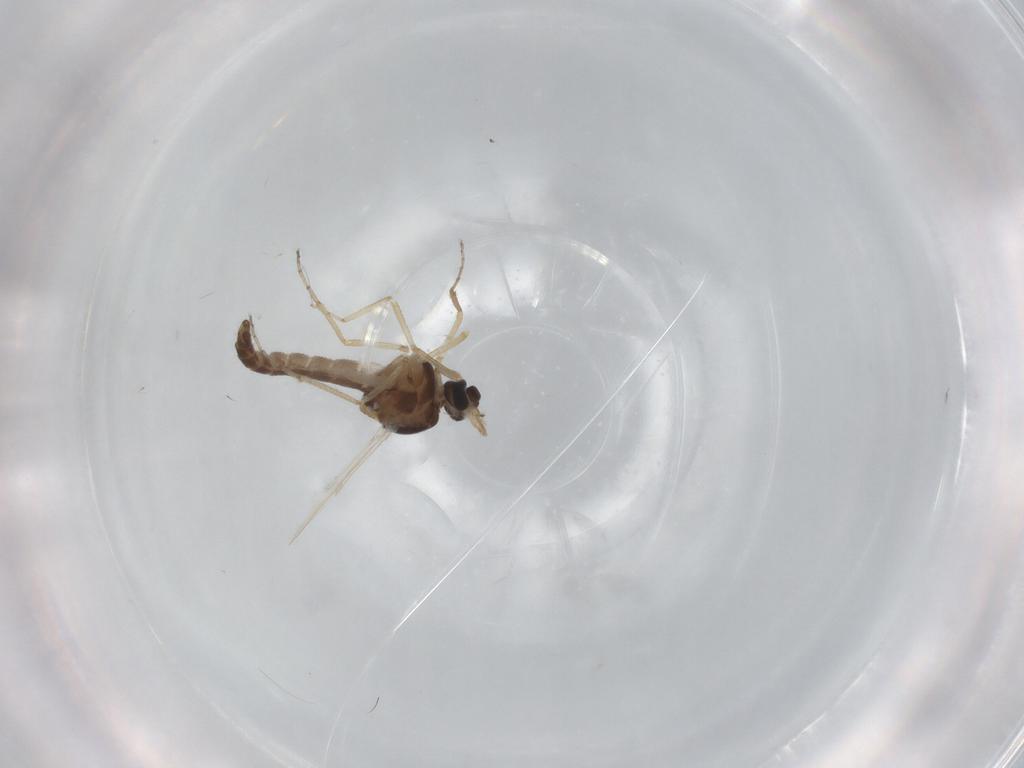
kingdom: Animalia
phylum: Arthropoda
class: Insecta
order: Diptera
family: Ceratopogonidae
